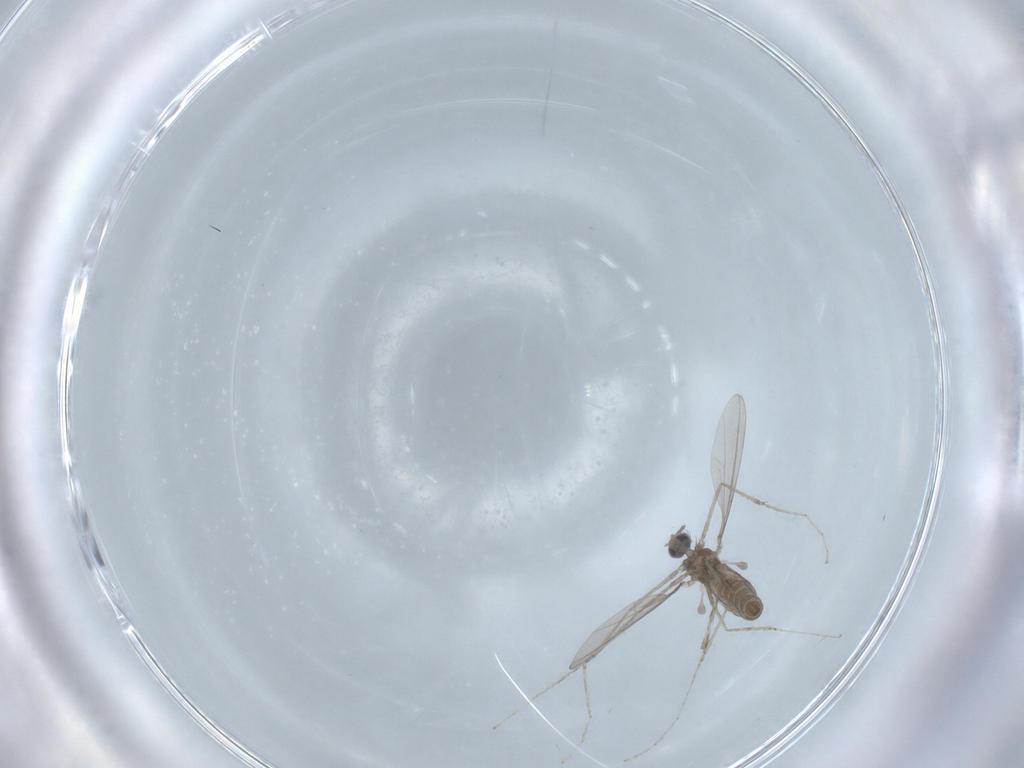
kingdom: Animalia
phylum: Arthropoda
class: Insecta
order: Diptera
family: Cecidomyiidae
